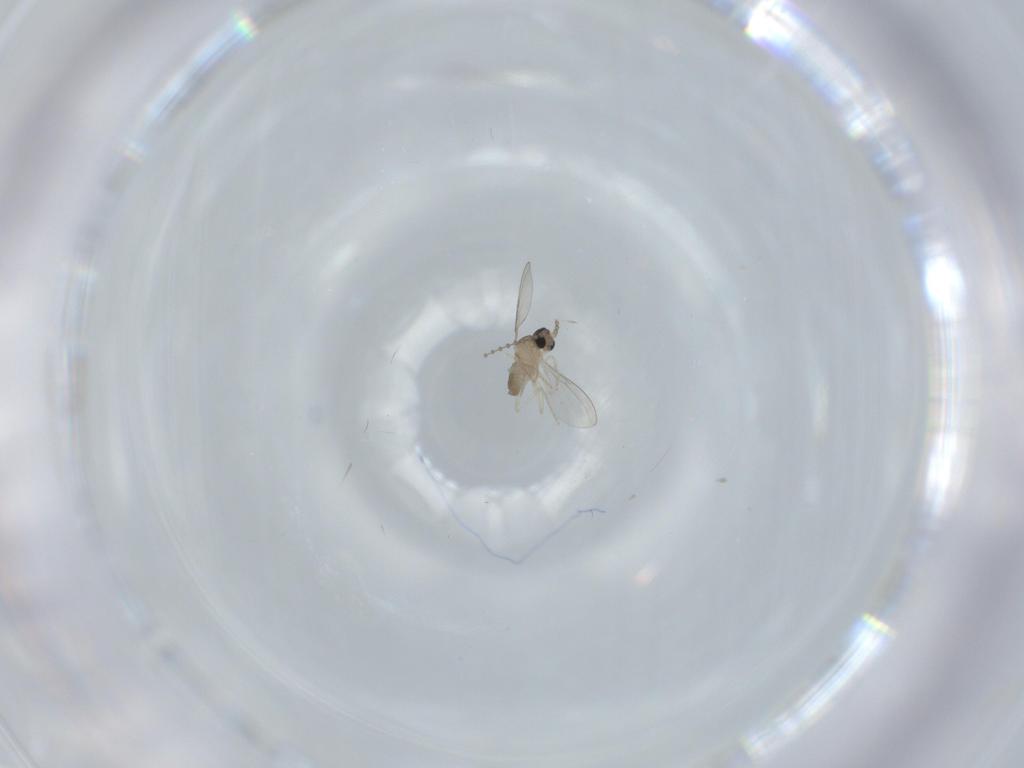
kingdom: Animalia
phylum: Arthropoda
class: Insecta
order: Diptera
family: Cecidomyiidae
